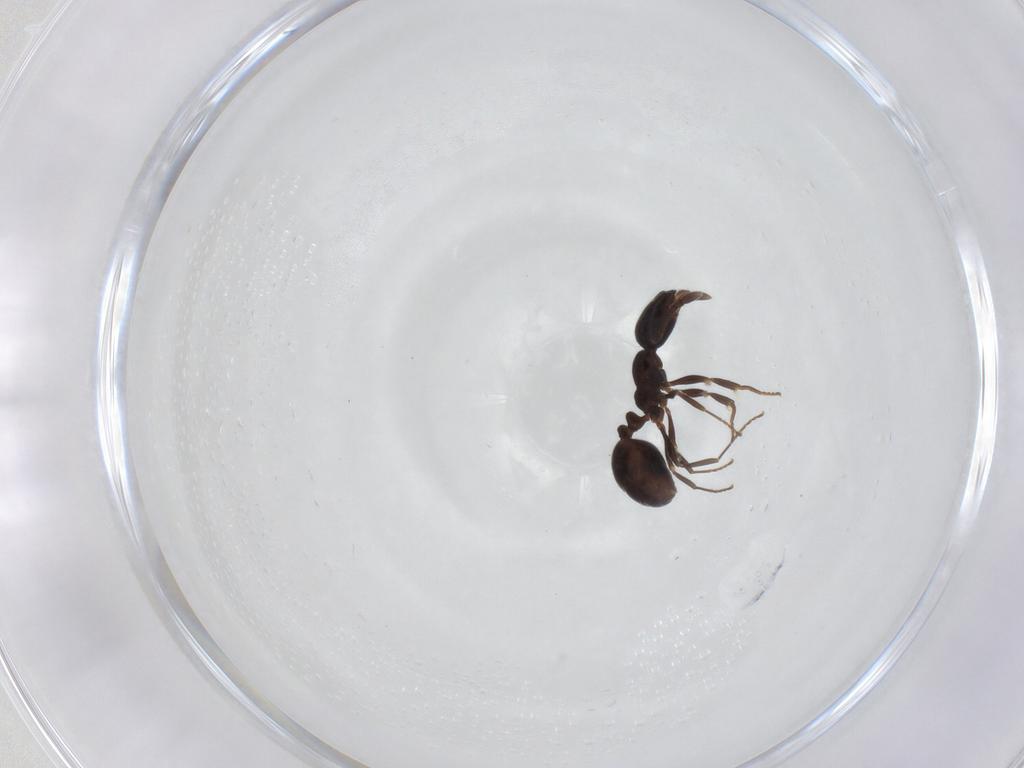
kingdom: Animalia
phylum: Arthropoda
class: Insecta
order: Hymenoptera
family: Formicidae
